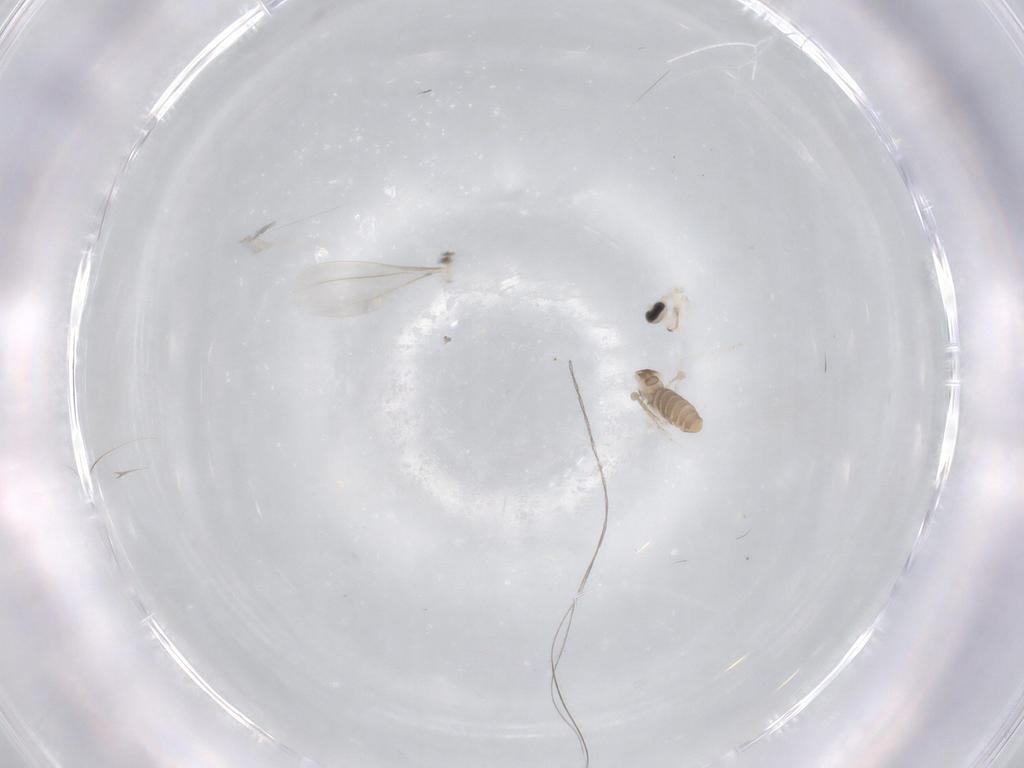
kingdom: Animalia
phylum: Arthropoda
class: Insecta
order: Diptera
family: Cecidomyiidae
